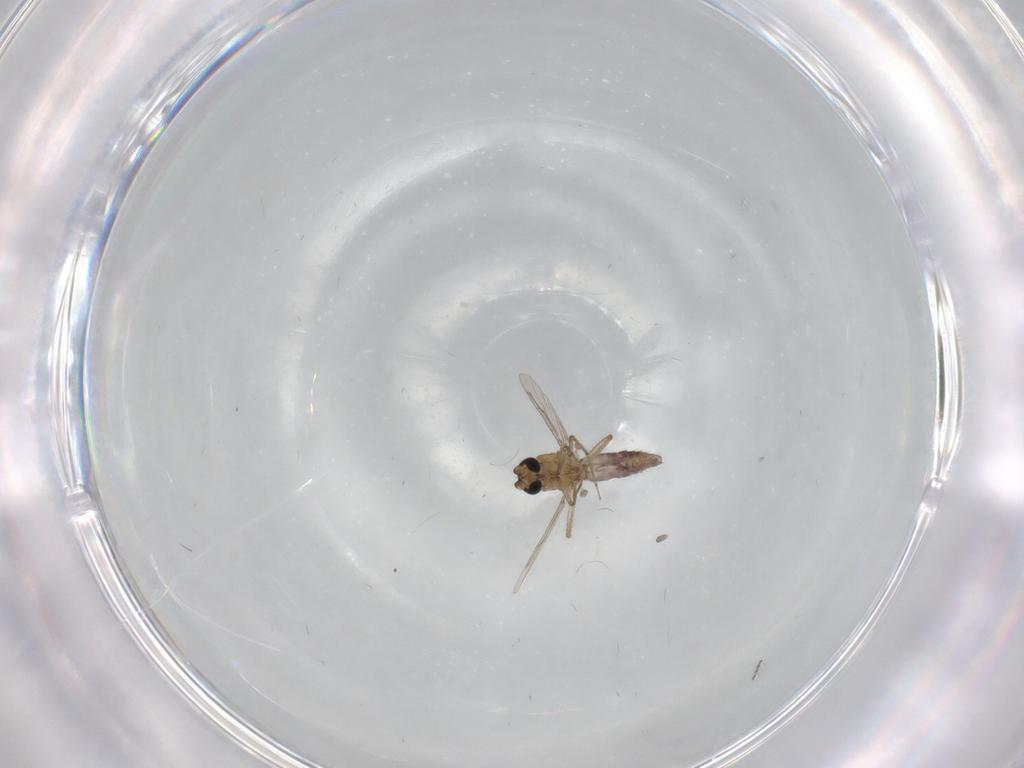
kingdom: Animalia
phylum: Arthropoda
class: Insecta
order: Diptera
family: Ceratopogonidae
